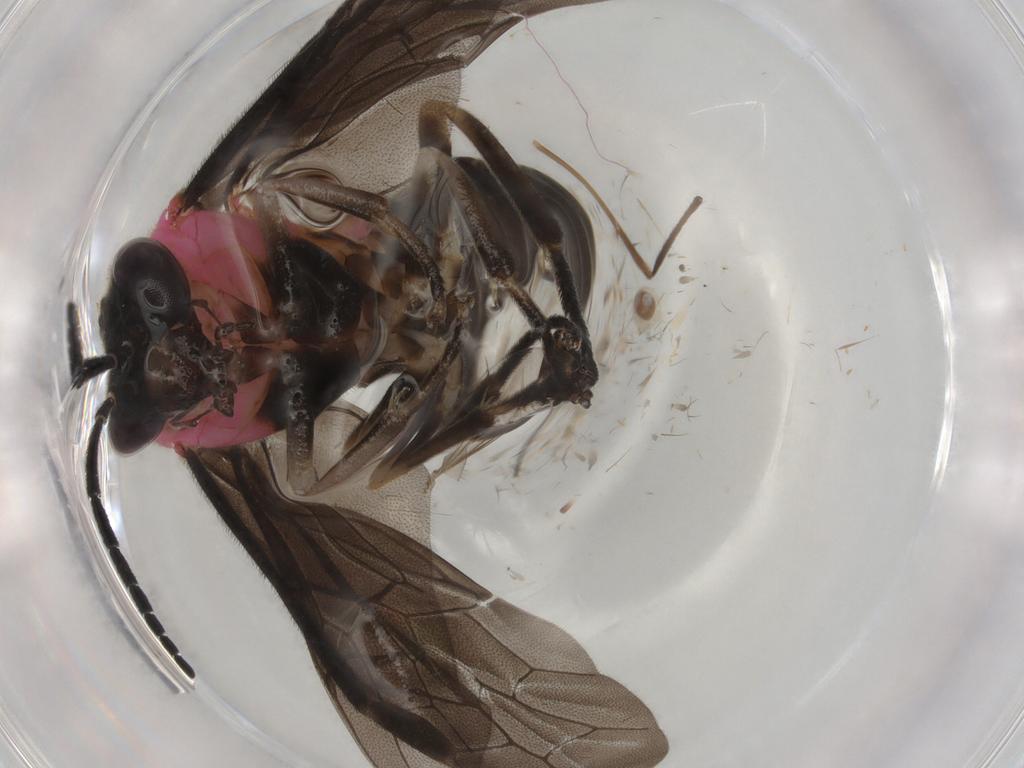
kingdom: Animalia
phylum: Arthropoda
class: Insecta
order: Hymenoptera
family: Tenthredinidae
